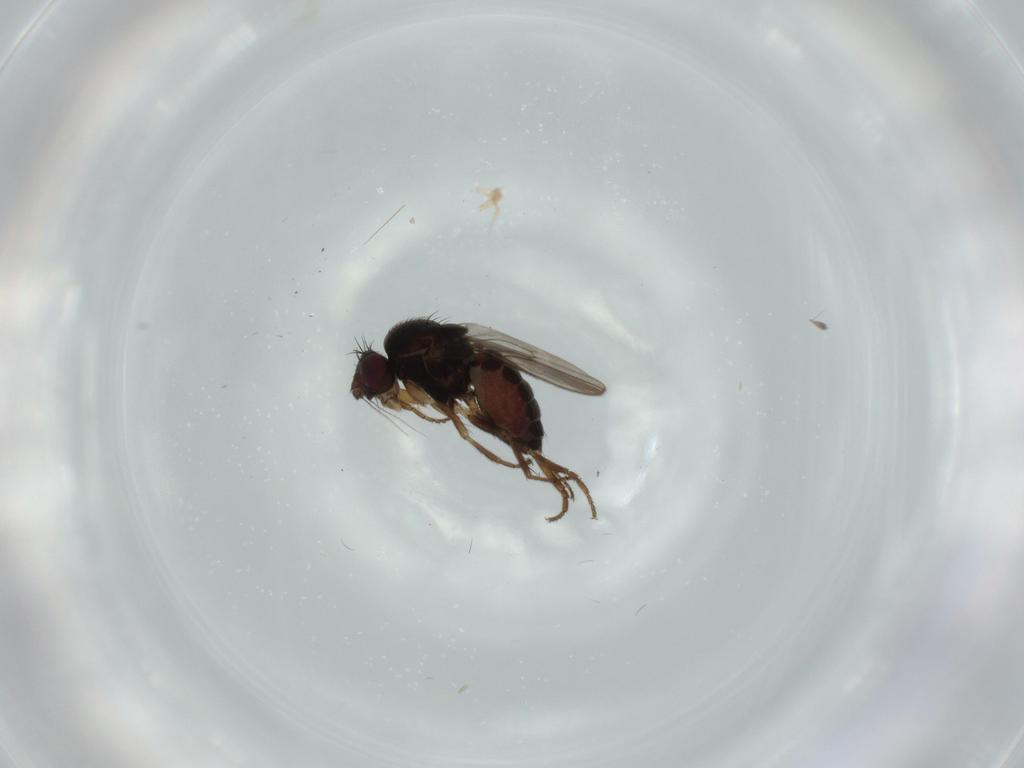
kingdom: Animalia
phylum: Arthropoda
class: Insecta
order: Diptera
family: Sphaeroceridae
